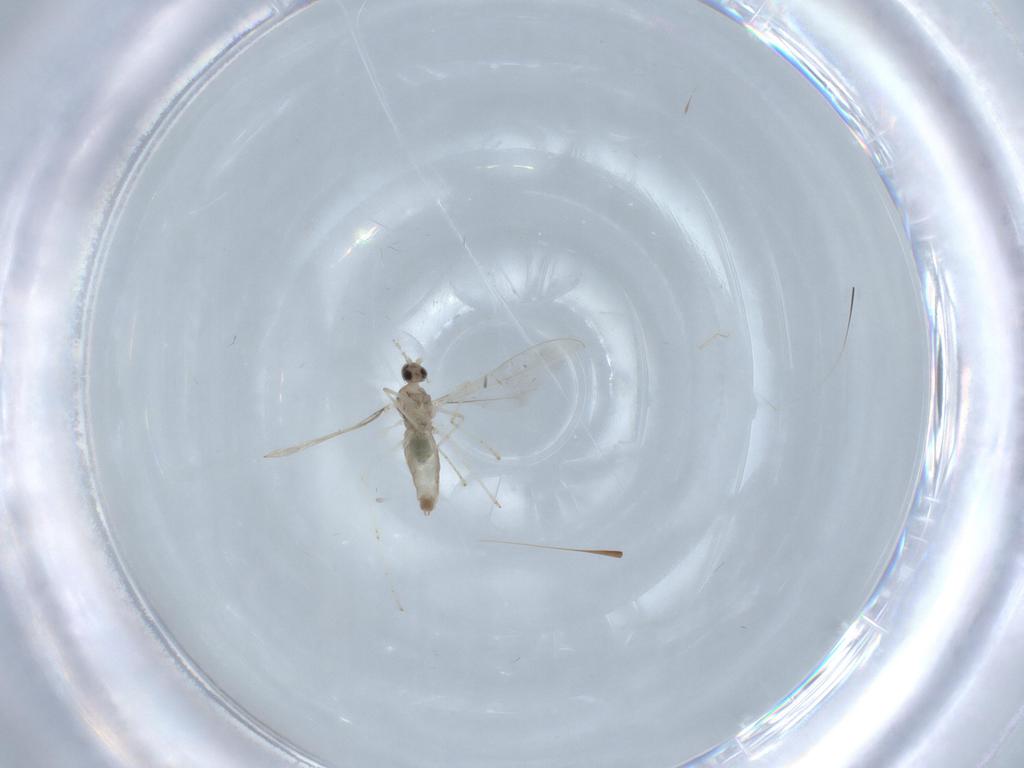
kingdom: Animalia
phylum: Arthropoda
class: Insecta
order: Diptera
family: Cecidomyiidae
